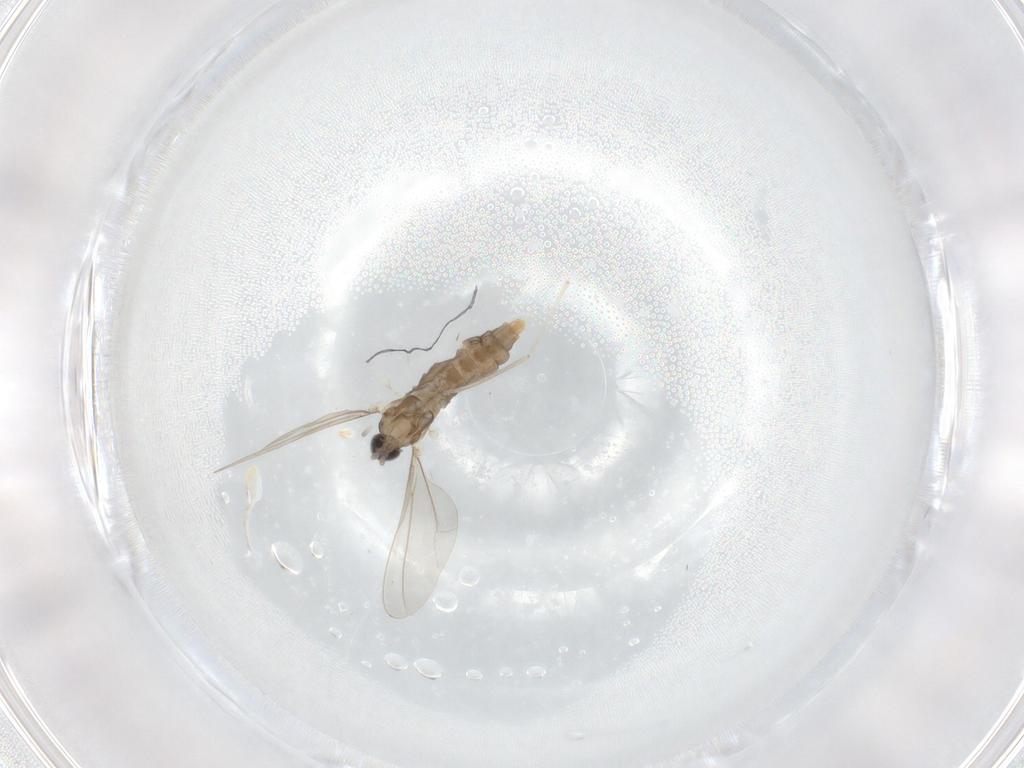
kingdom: Animalia
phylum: Arthropoda
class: Insecta
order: Diptera
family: Cecidomyiidae
